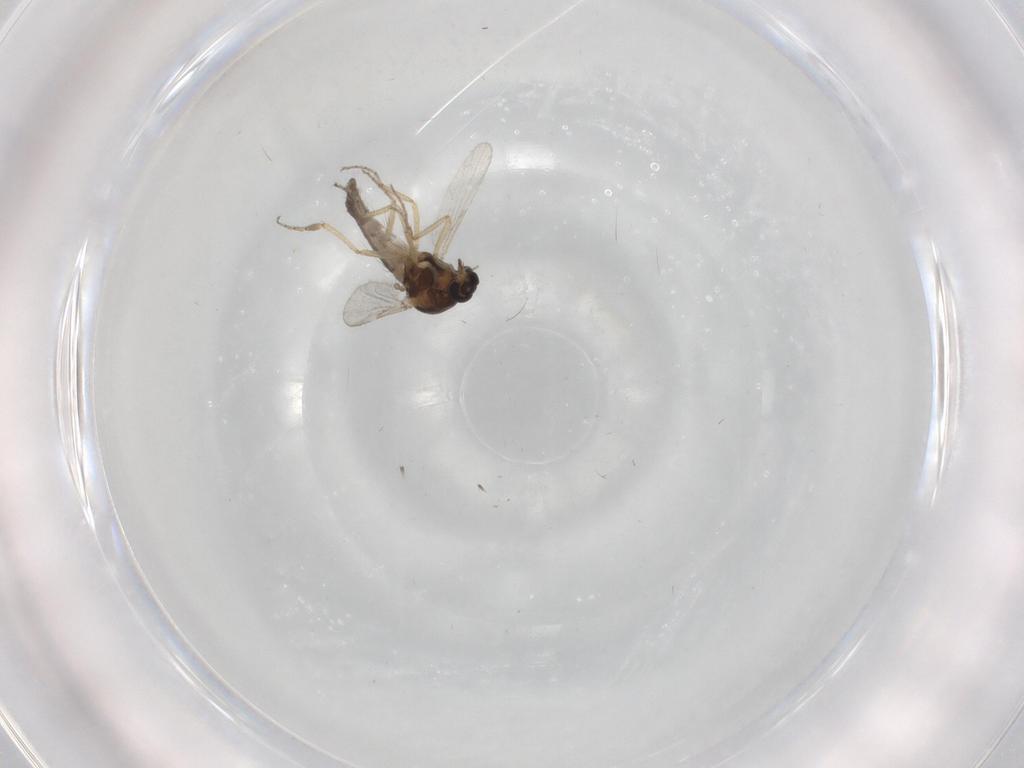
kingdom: Animalia
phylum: Arthropoda
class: Insecta
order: Diptera
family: Ceratopogonidae
